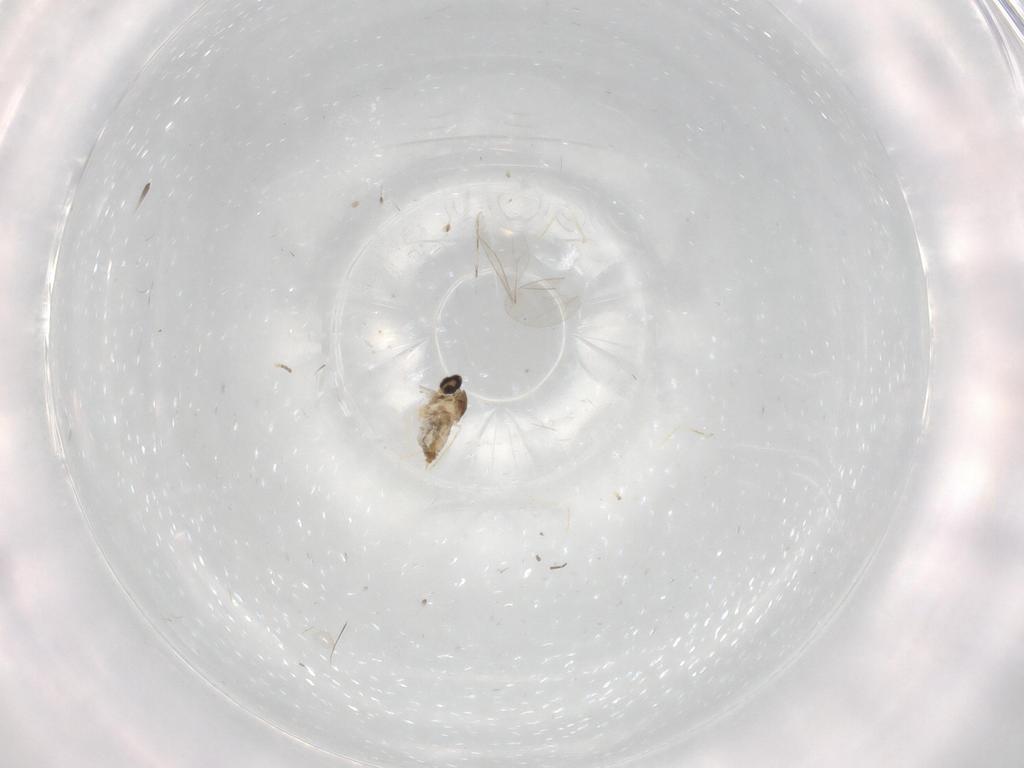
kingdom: Animalia
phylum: Arthropoda
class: Insecta
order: Diptera
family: Cecidomyiidae
